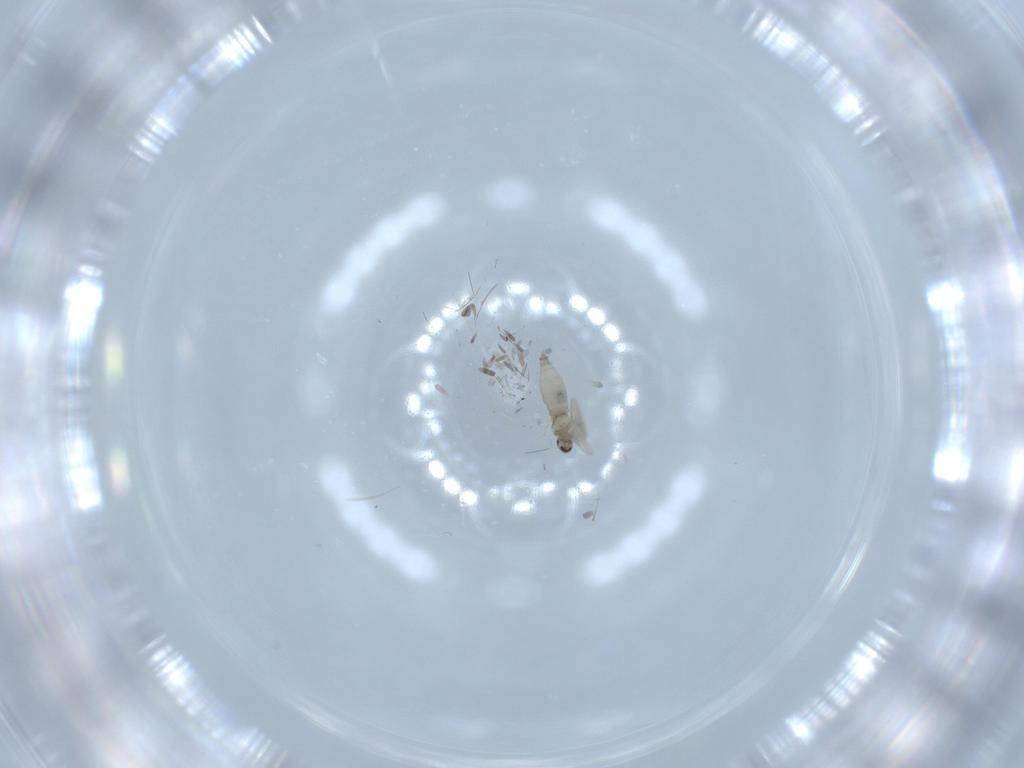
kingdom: Animalia
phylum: Arthropoda
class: Insecta
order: Diptera
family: Cecidomyiidae
